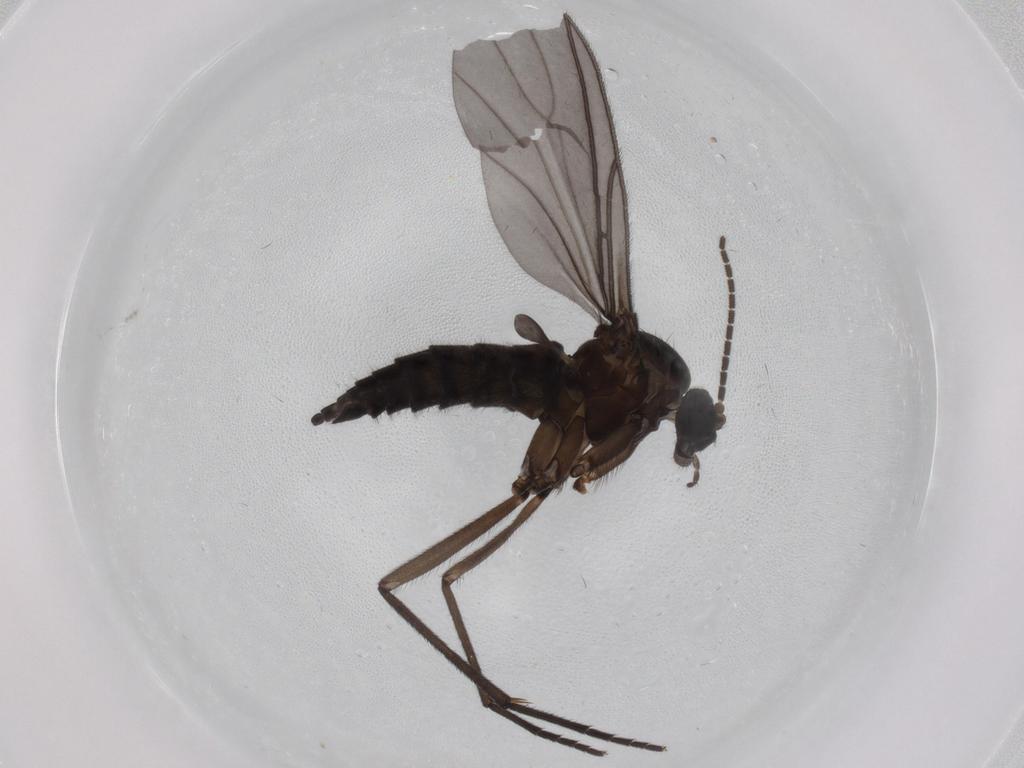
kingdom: Animalia
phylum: Arthropoda
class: Insecta
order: Diptera
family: Sciaridae
